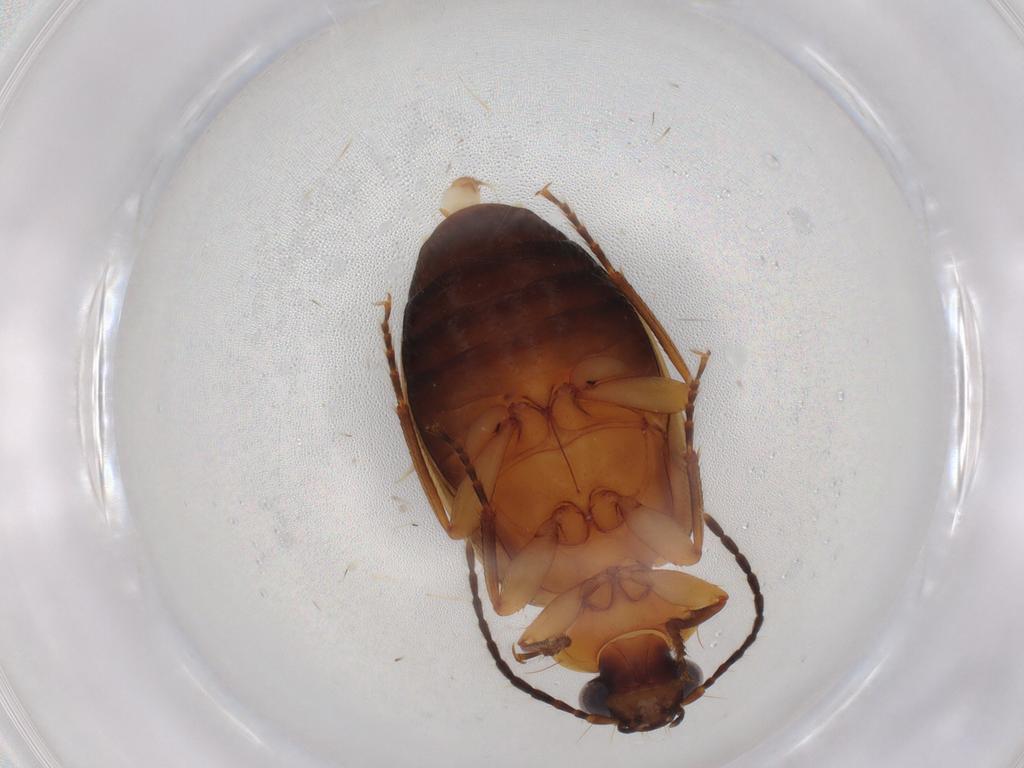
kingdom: Animalia
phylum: Arthropoda
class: Insecta
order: Coleoptera
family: Carabidae
